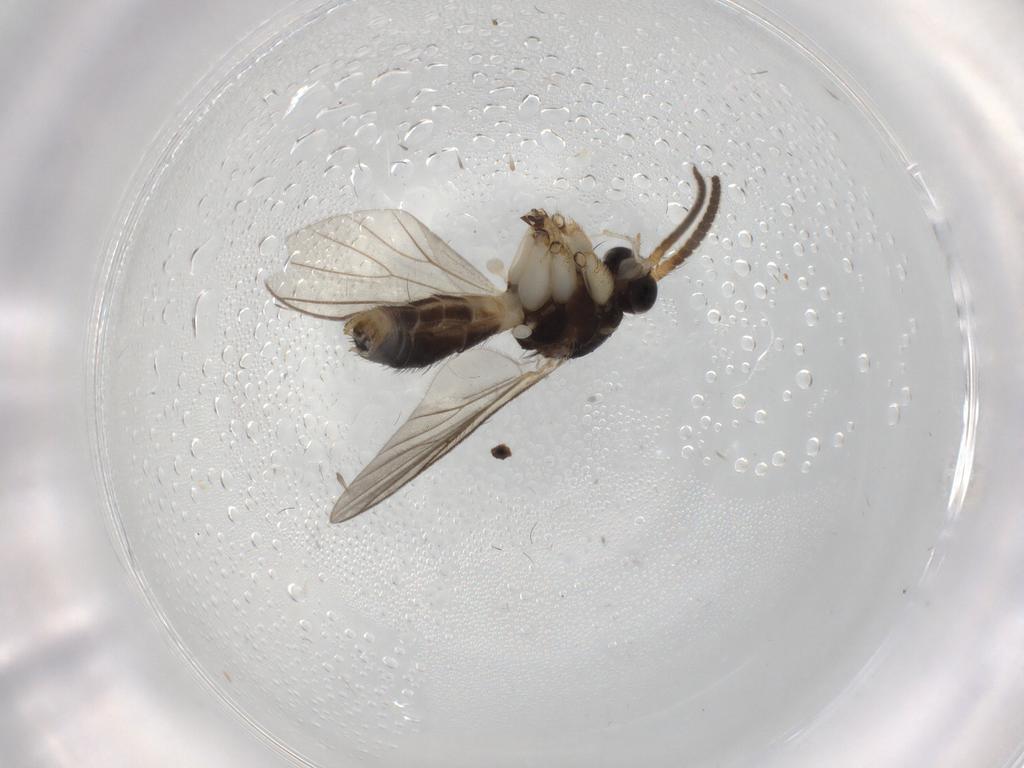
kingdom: Animalia
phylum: Arthropoda
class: Insecta
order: Diptera
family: Mycetophilidae
